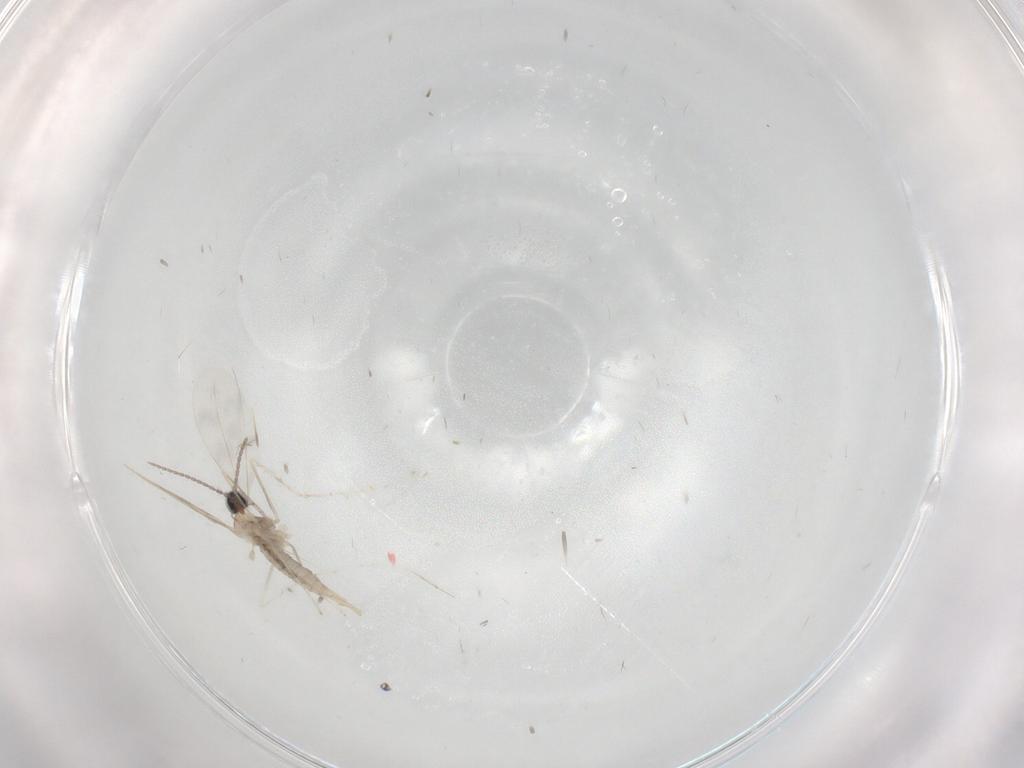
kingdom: Animalia
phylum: Arthropoda
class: Insecta
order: Diptera
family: Cecidomyiidae
